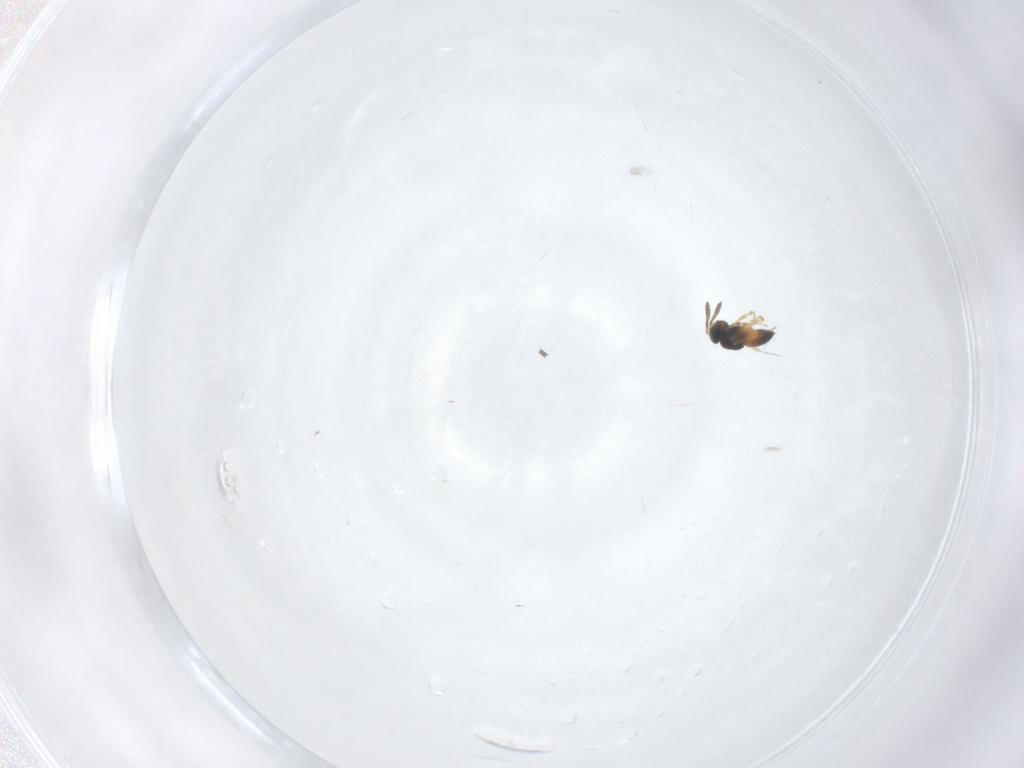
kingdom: Animalia
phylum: Arthropoda
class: Insecta
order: Hymenoptera
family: Scelionidae
